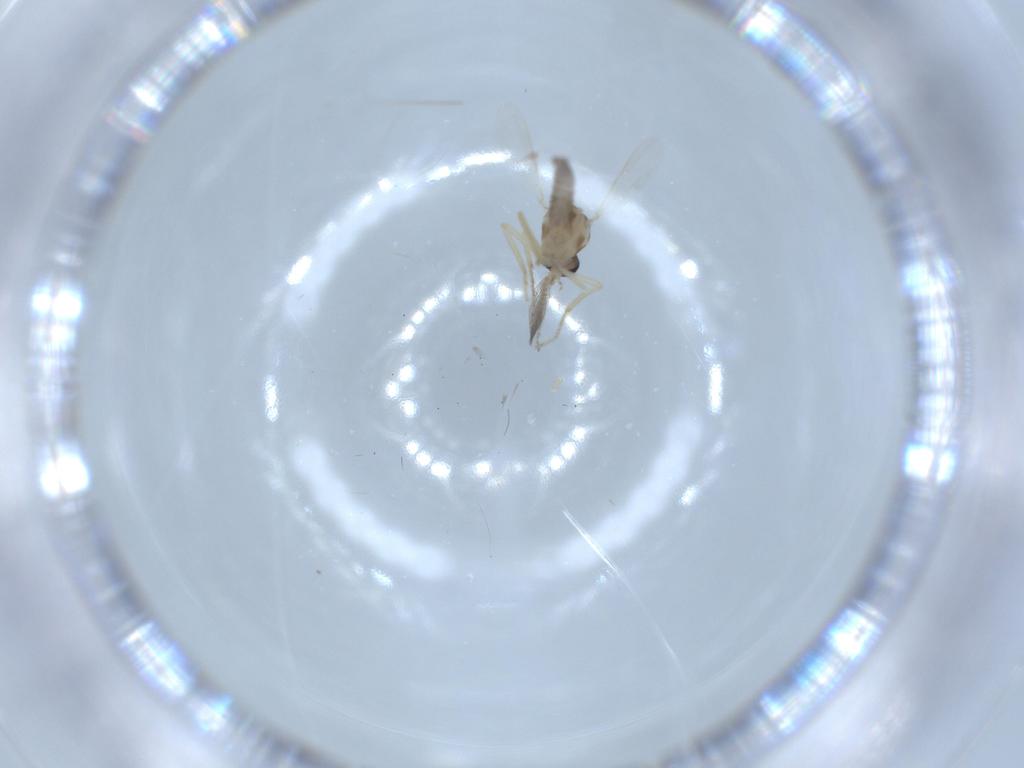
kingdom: Animalia
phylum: Arthropoda
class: Insecta
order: Diptera
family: Ceratopogonidae
